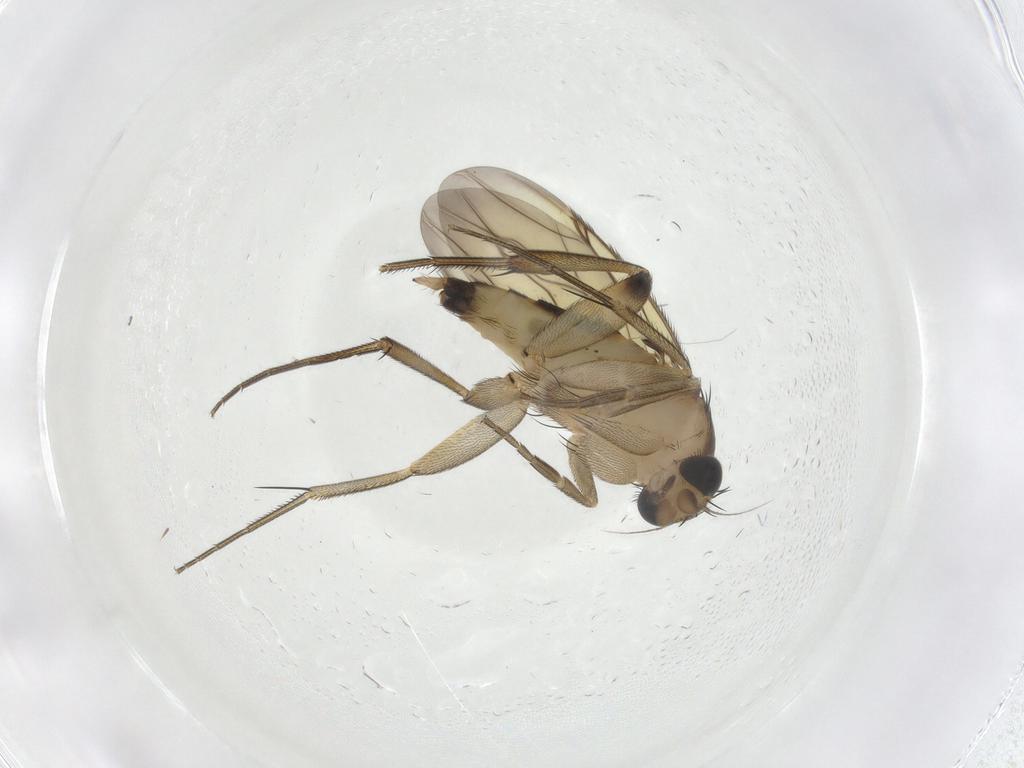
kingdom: Animalia
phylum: Arthropoda
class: Insecta
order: Diptera
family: Phoridae
